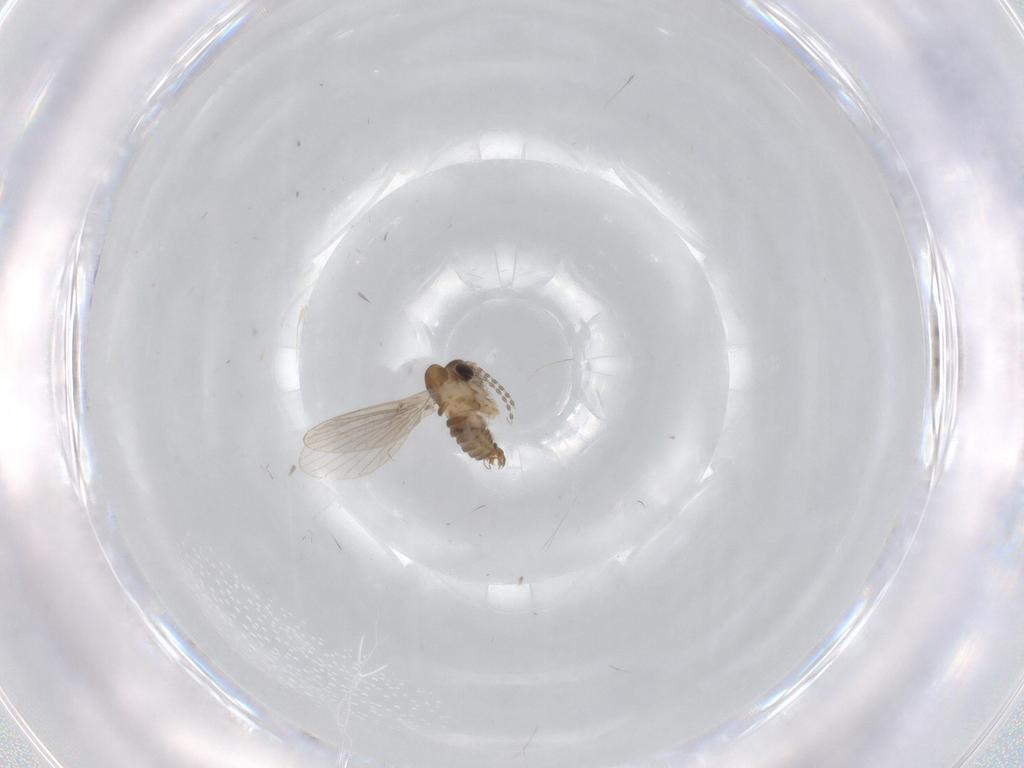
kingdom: Animalia
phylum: Arthropoda
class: Insecta
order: Diptera
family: Psychodidae
